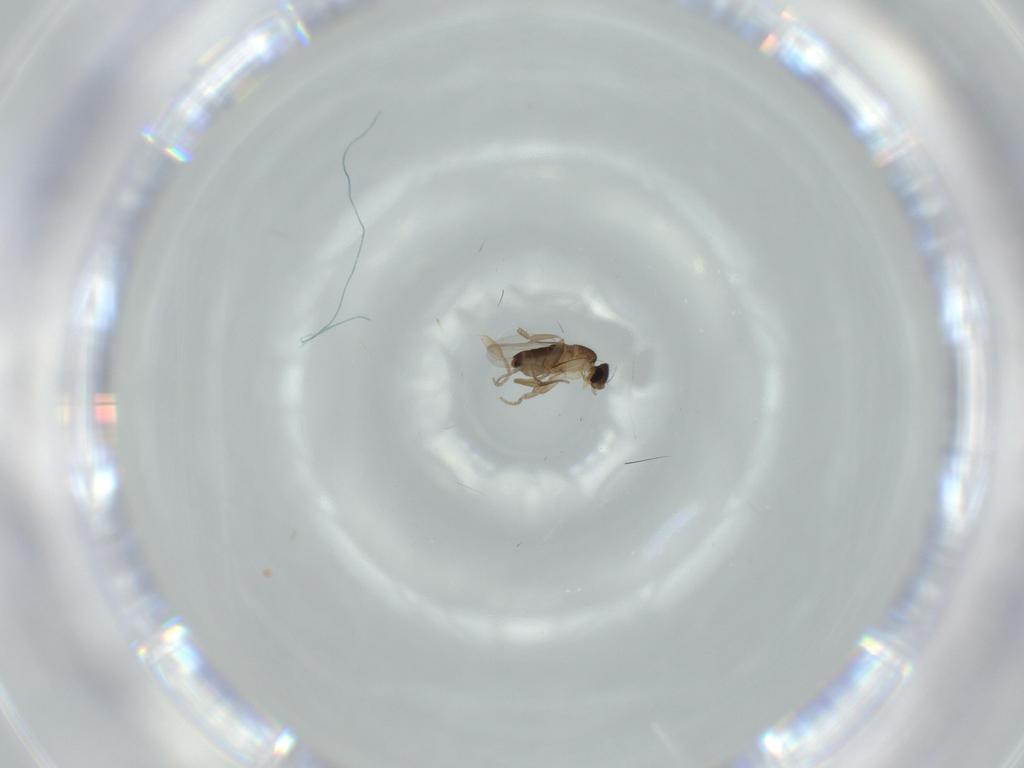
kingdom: Animalia
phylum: Arthropoda
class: Insecta
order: Diptera
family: Phoridae
